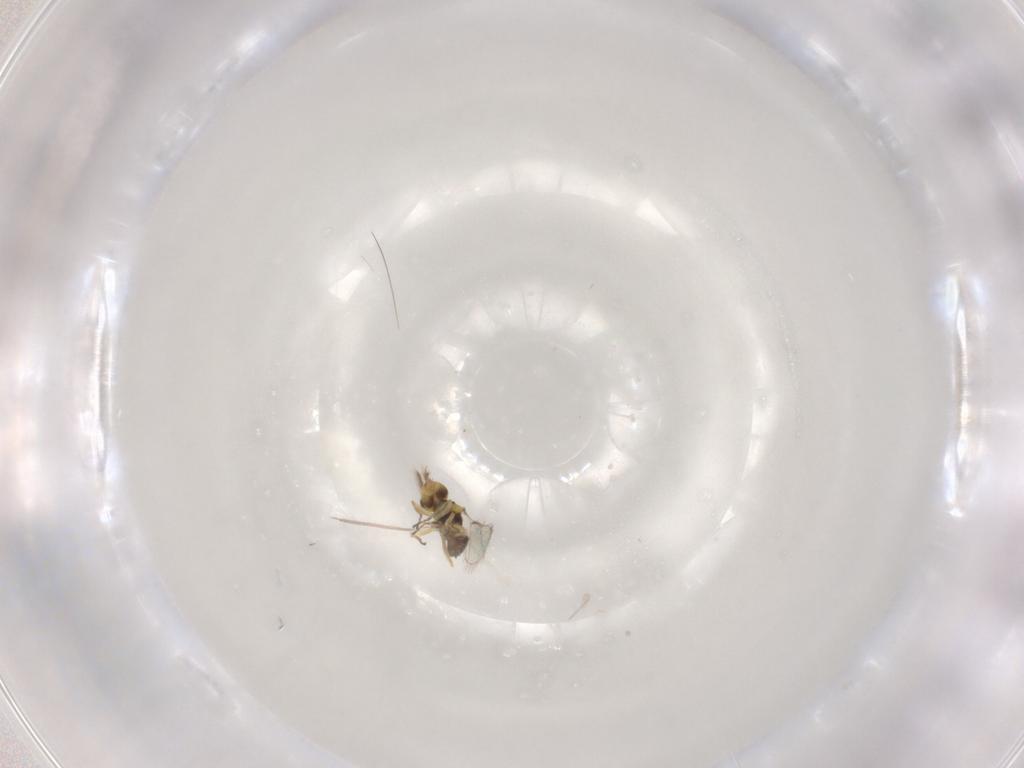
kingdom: Animalia
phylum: Arthropoda
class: Insecta
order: Hymenoptera
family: Eulophidae
